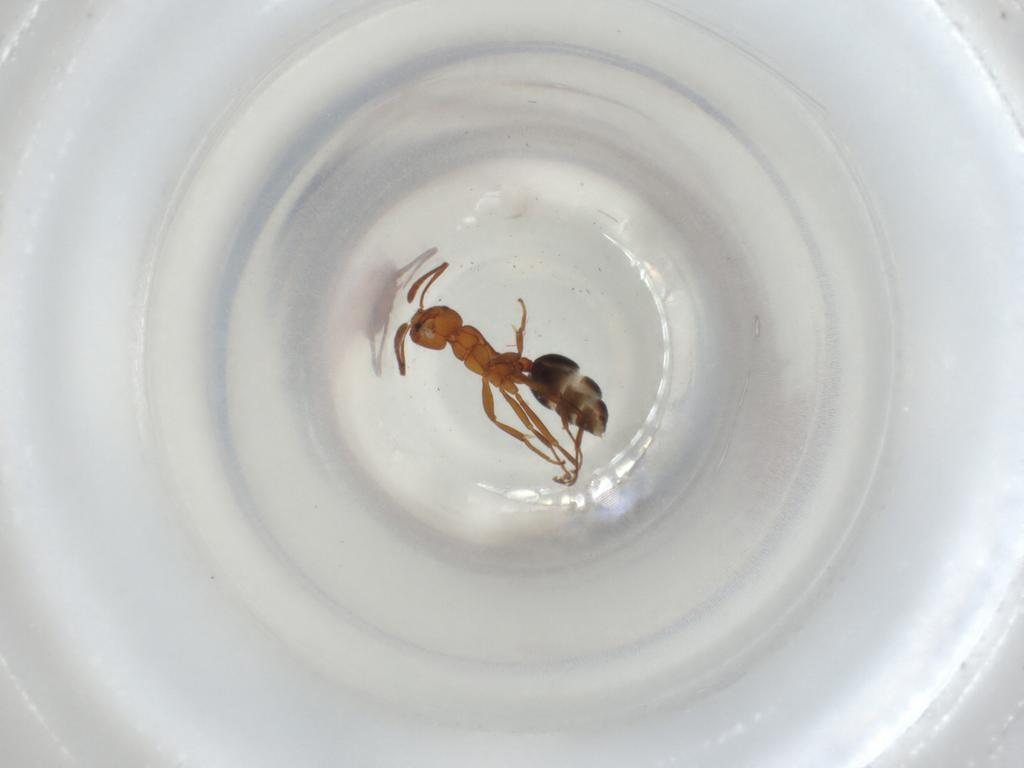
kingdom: Animalia
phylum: Arthropoda
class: Insecta
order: Hymenoptera
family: Formicidae
